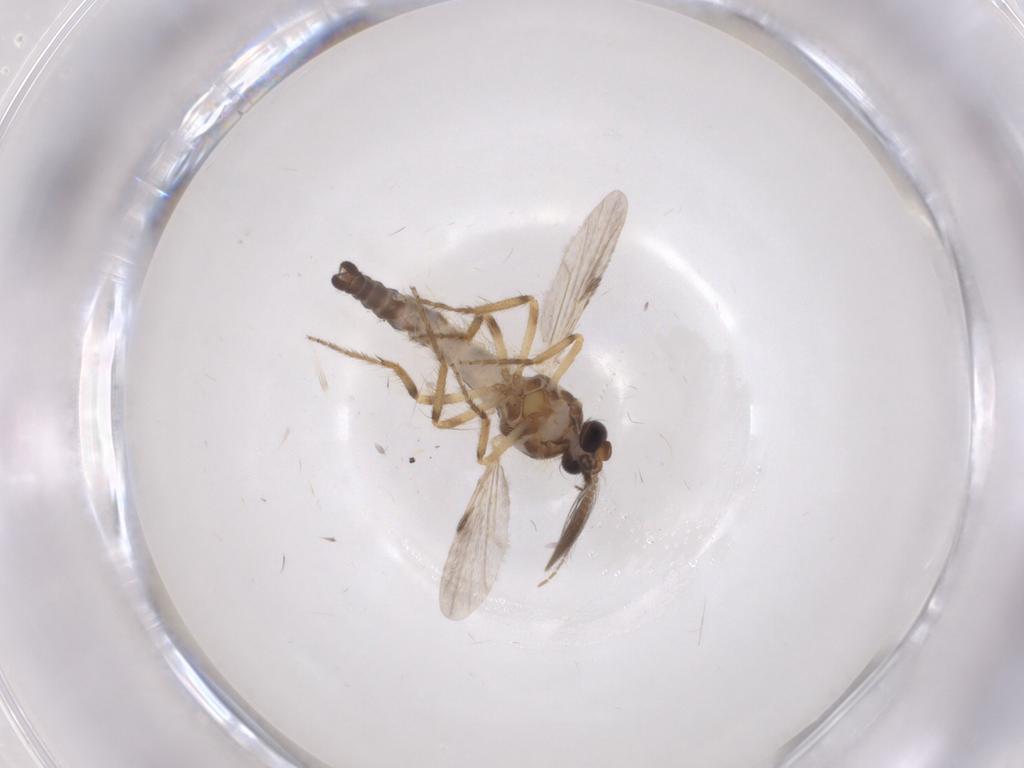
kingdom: Animalia
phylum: Arthropoda
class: Insecta
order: Diptera
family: Ceratopogonidae
